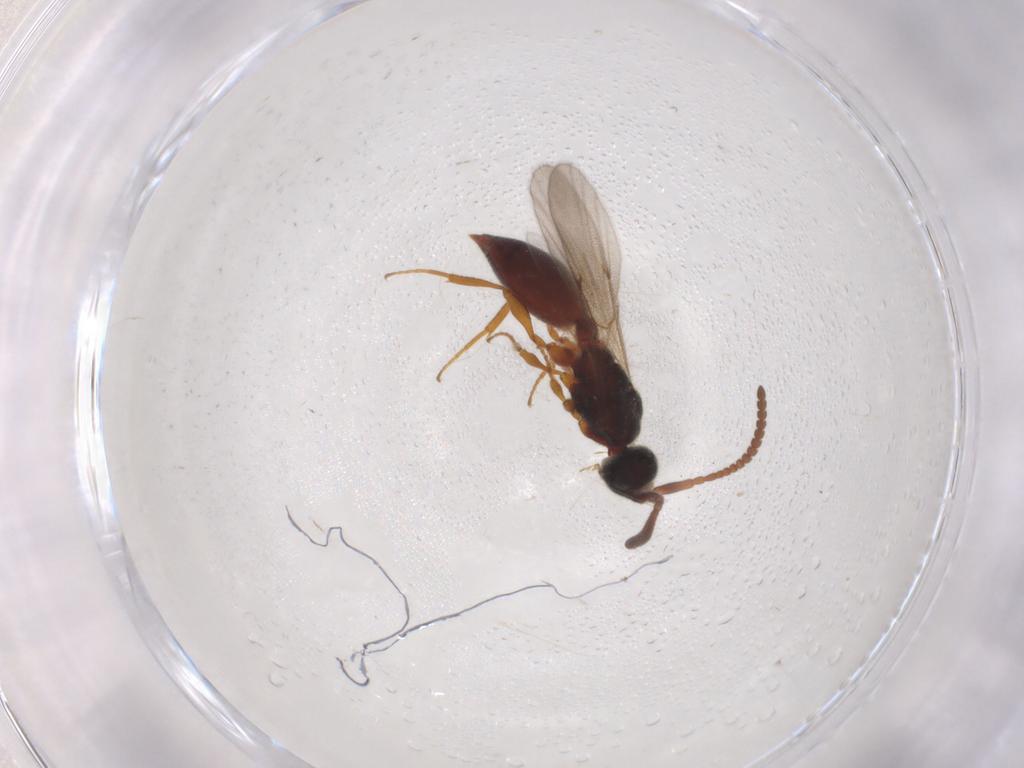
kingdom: Animalia
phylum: Arthropoda
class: Insecta
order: Hymenoptera
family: Diapriidae
